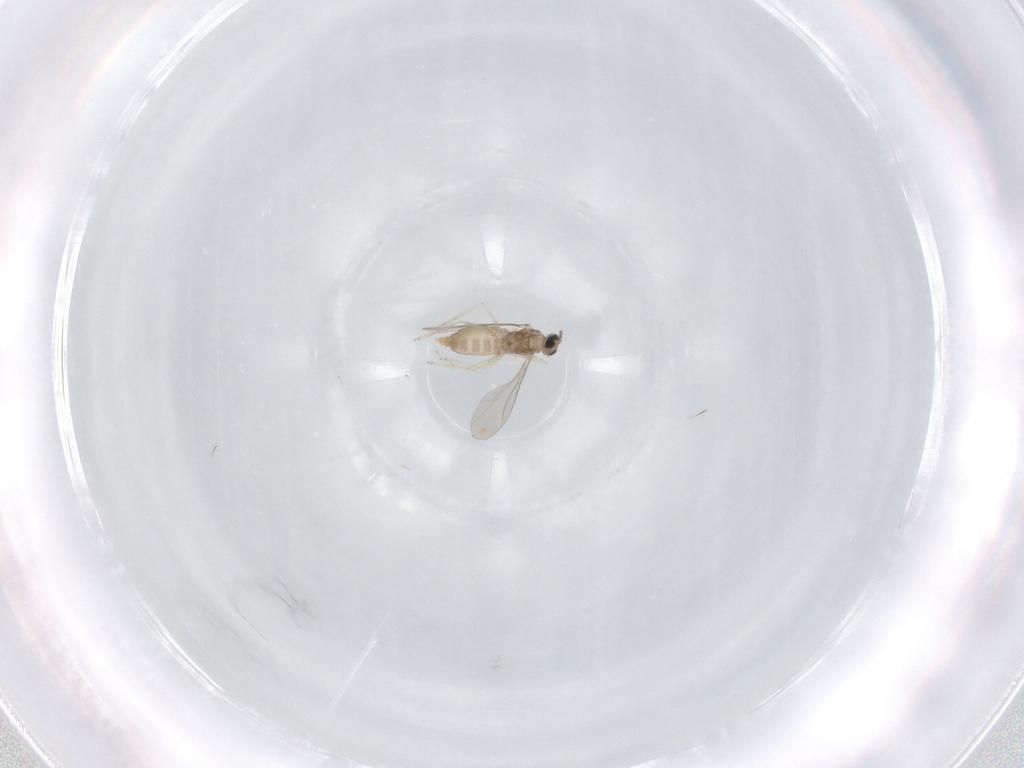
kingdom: Animalia
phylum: Arthropoda
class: Insecta
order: Diptera
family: Cecidomyiidae
